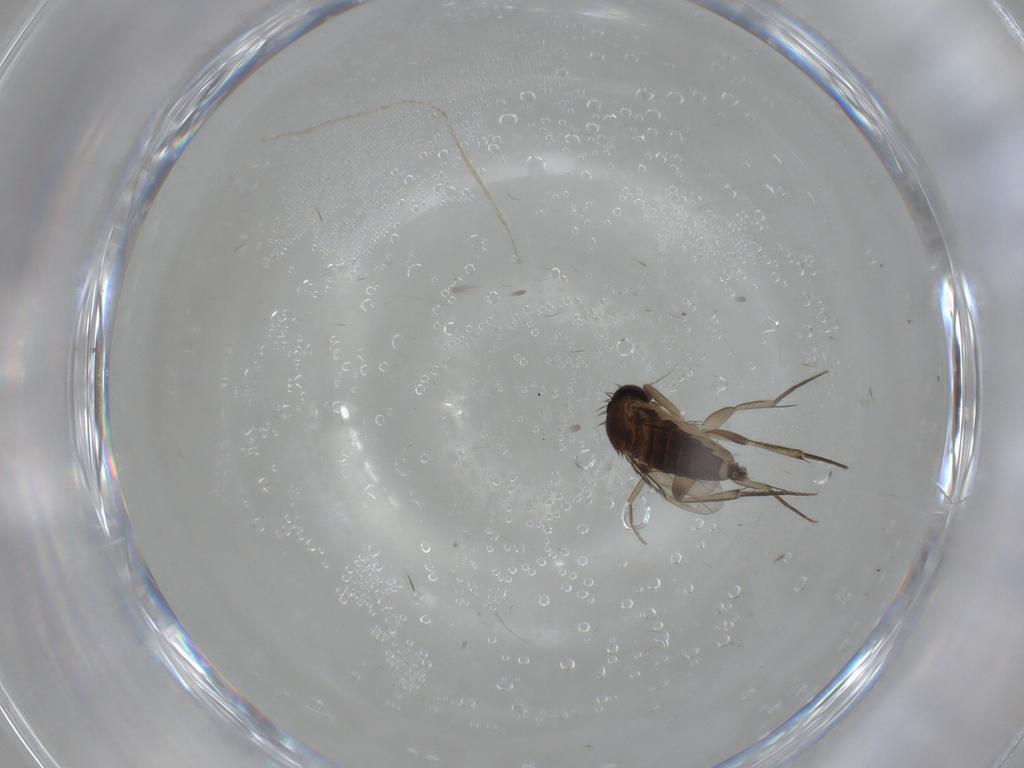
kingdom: Animalia
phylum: Arthropoda
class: Insecta
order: Diptera
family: Phoridae
